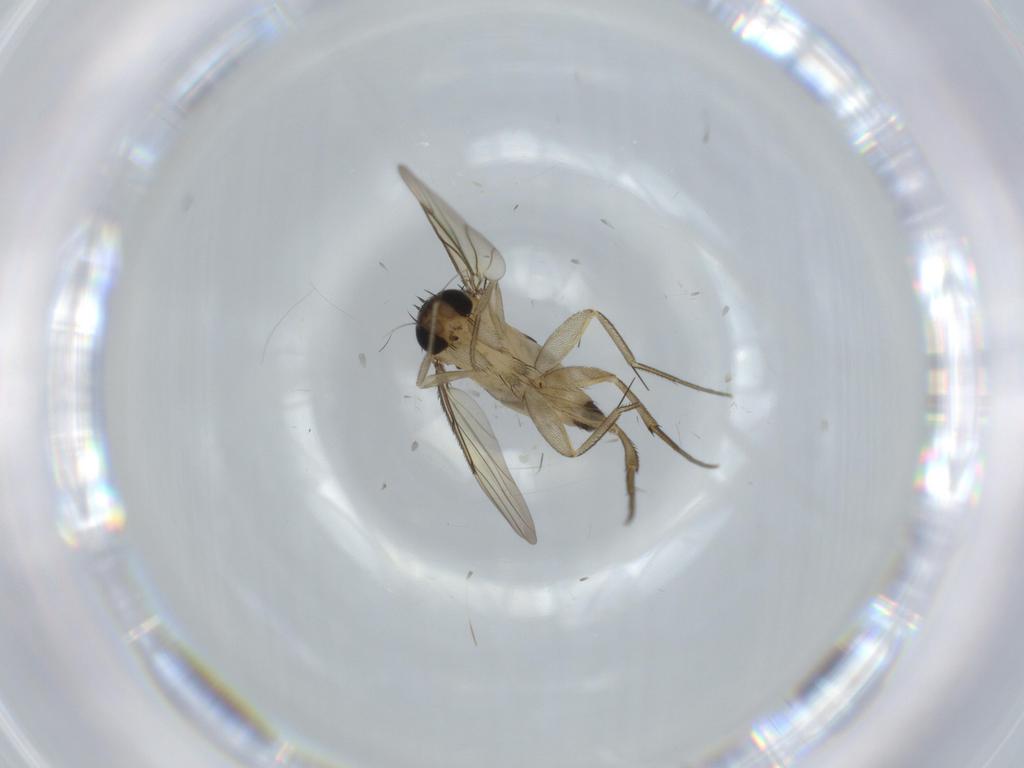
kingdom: Animalia
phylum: Arthropoda
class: Insecta
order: Diptera
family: Phoridae
